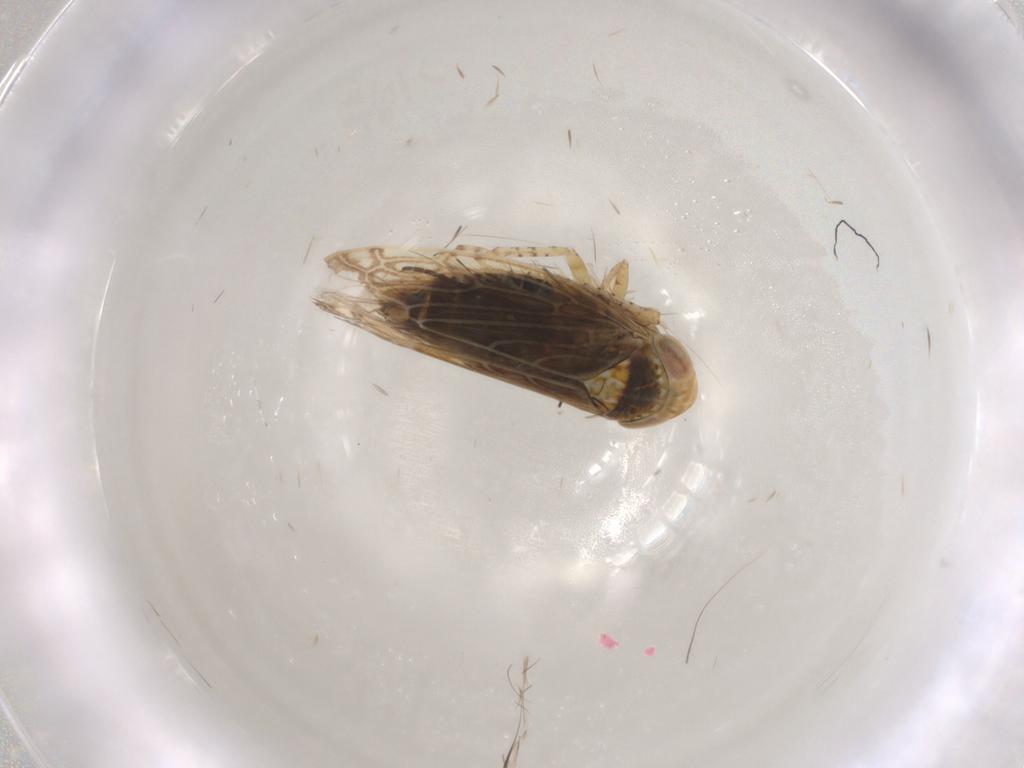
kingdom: Animalia
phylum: Arthropoda
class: Insecta
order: Hemiptera
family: Cicadellidae
